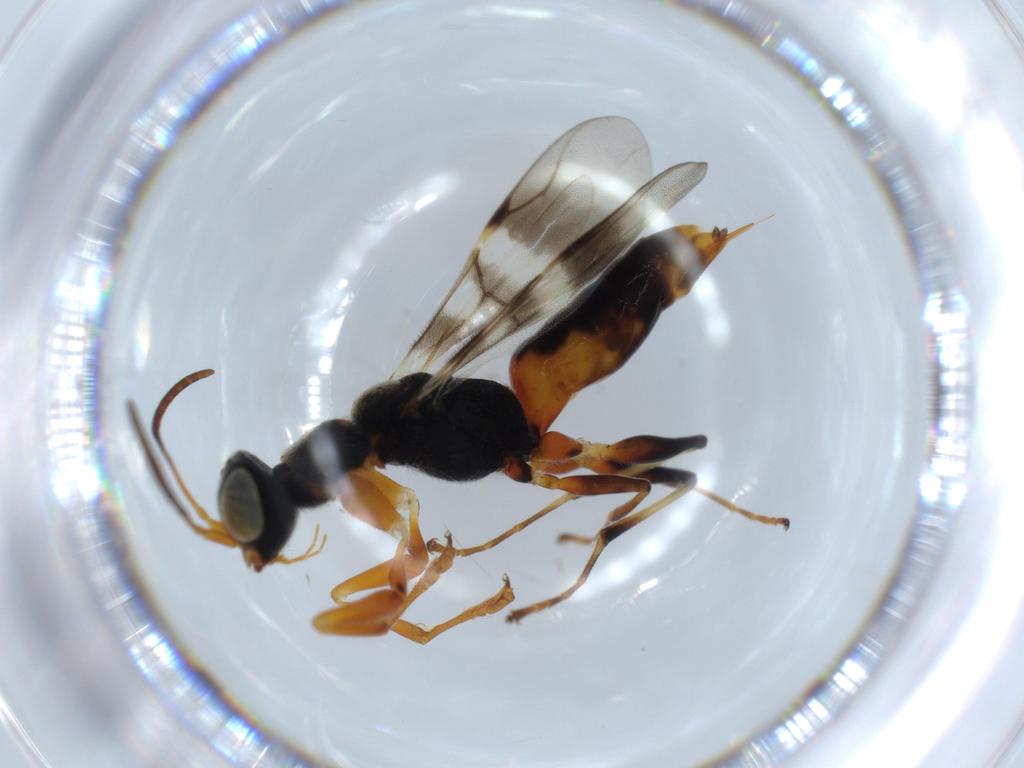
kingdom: Animalia
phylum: Arthropoda
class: Insecta
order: Hymenoptera
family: Dryinidae
